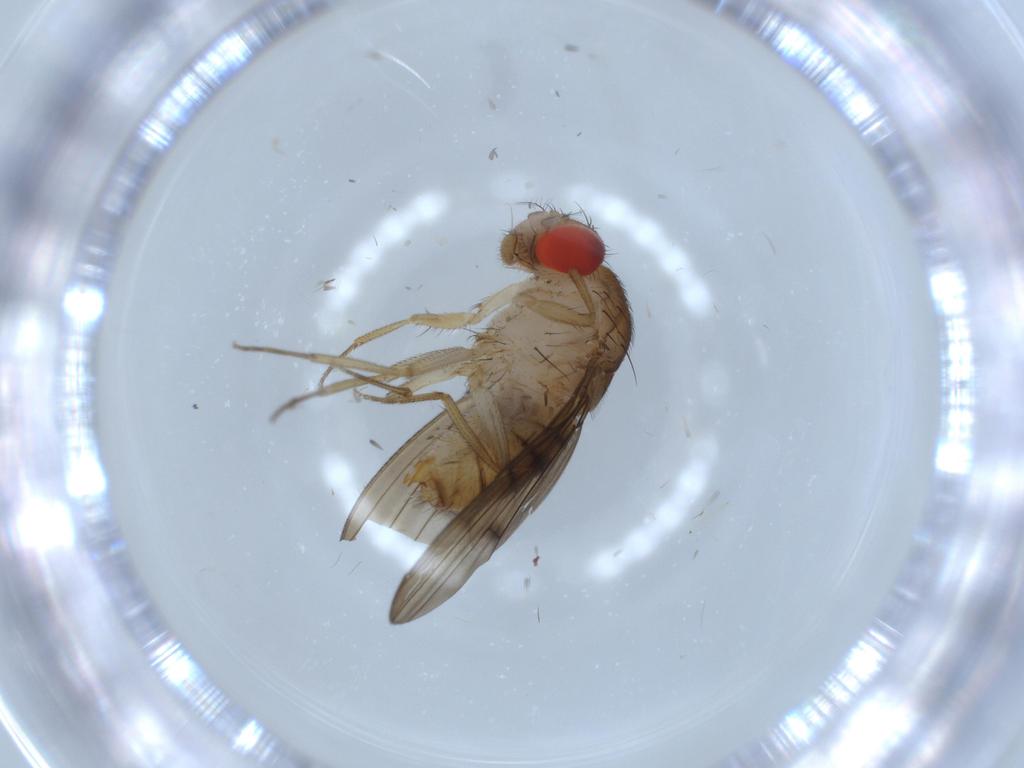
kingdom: Animalia
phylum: Arthropoda
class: Insecta
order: Diptera
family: Drosophilidae
